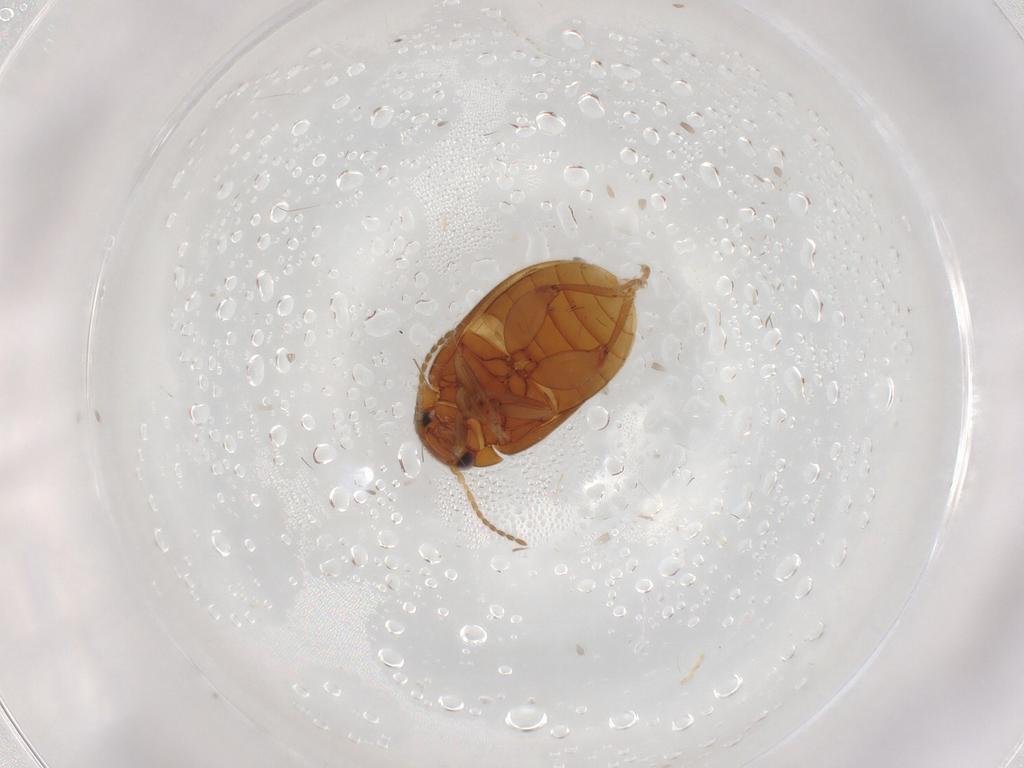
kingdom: Animalia
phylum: Arthropoda
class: Insecta
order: Coleoptera
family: Scirtidae
